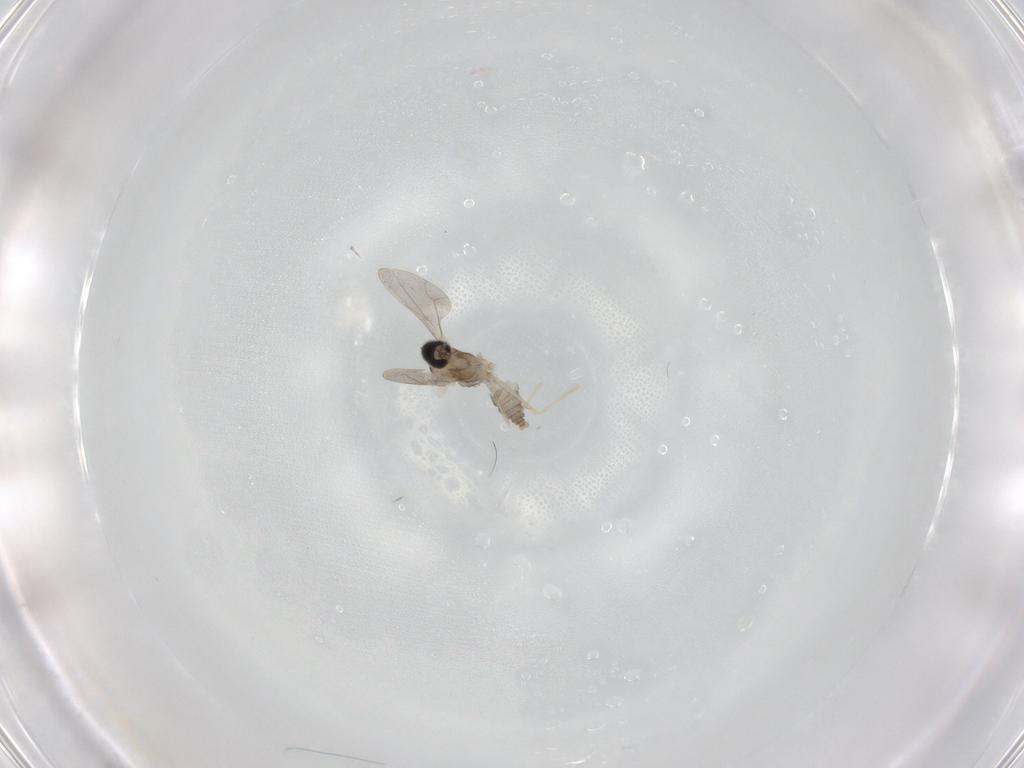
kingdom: Animalia
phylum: Arthropoda
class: Insecta
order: Diptera
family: Cecidomyiidae
